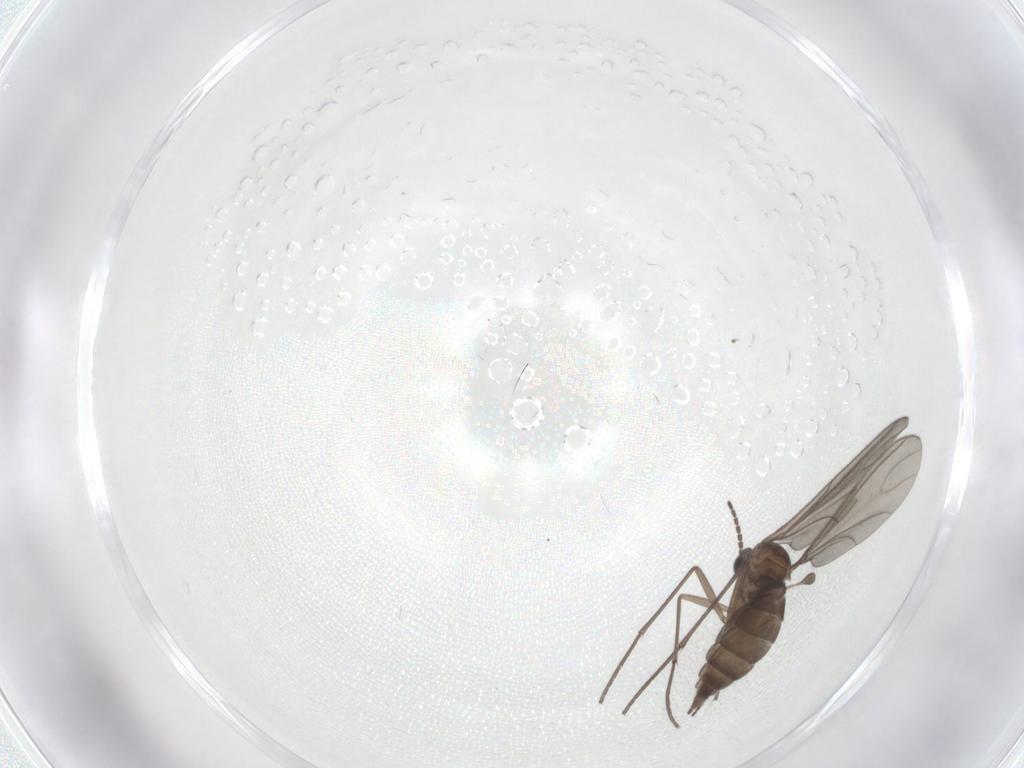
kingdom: Animalia
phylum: Arthropoda
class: Insecta
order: Diptera
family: Sciaridae
